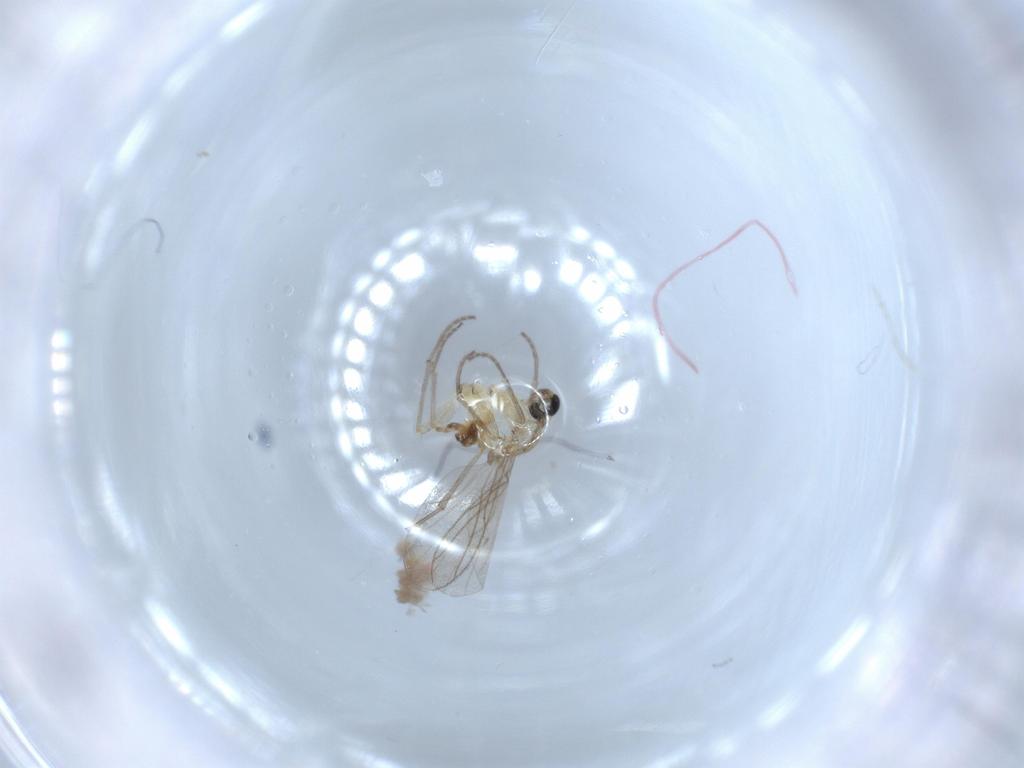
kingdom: Animalia
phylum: Arthropoda
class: Insecta
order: Diptera
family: Sciaridae
